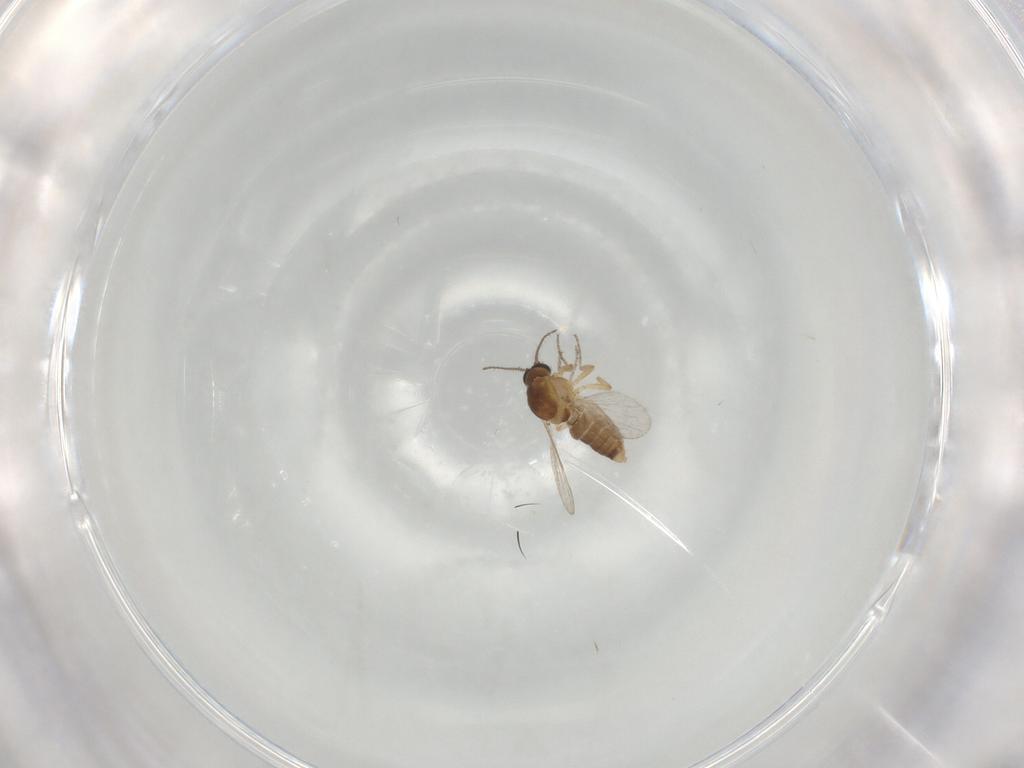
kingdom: Animalia
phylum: Arthropoda
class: Insecta
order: Diptera
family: Ceratopogonidae
